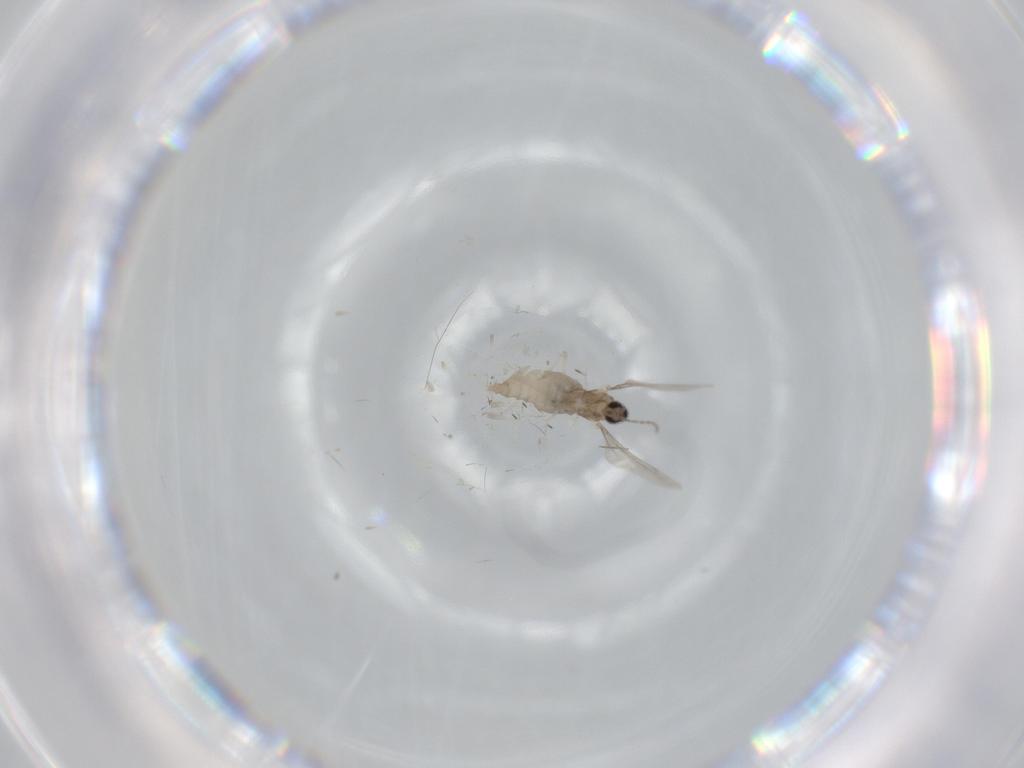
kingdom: Animalia
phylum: Arthropoda
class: Insecta
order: Diptera
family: Cecidomyiidae
